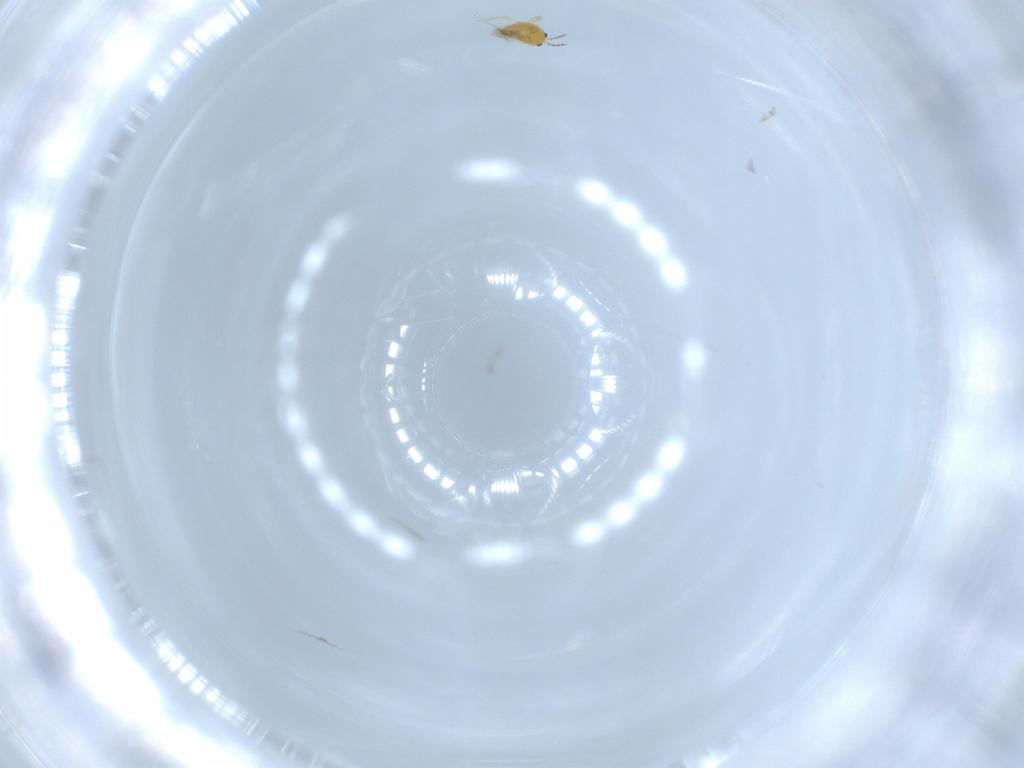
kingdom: Animalia
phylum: Arthropoda
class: Insecta
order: Thysanoptera
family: Thripidae
